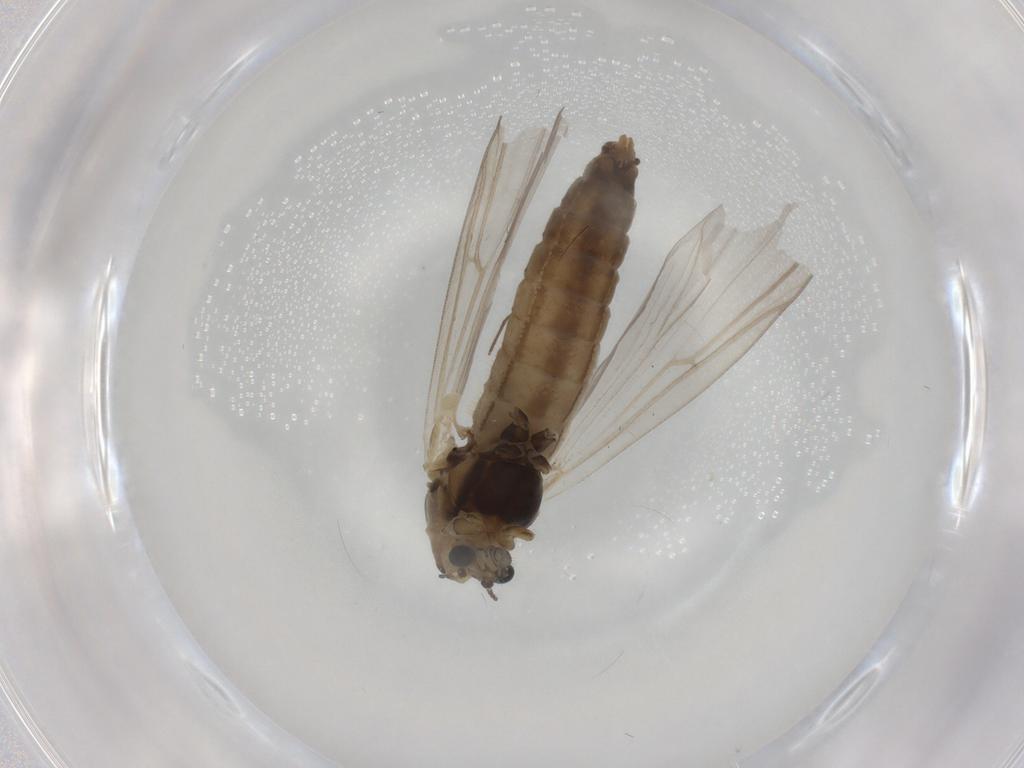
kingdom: Animalia
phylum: Arthropoda
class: Insecta
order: Diptera
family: Phoridae
